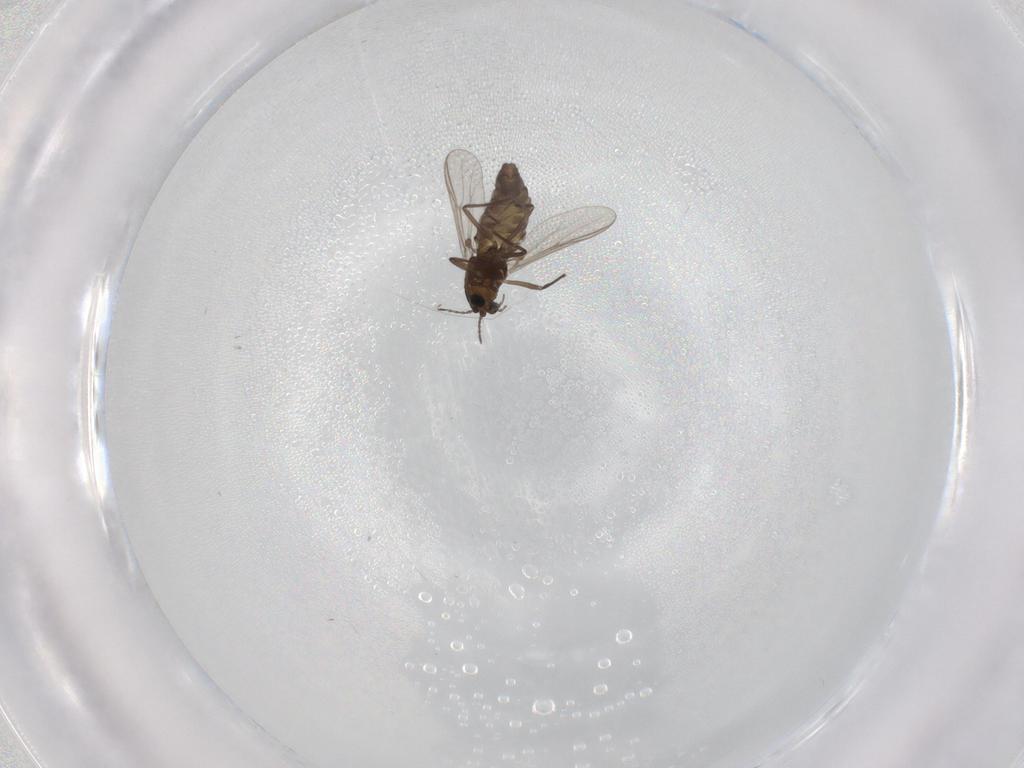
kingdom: Animalia
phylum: Arthropoda
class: Insecta
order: Diptera
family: Chironomidae
